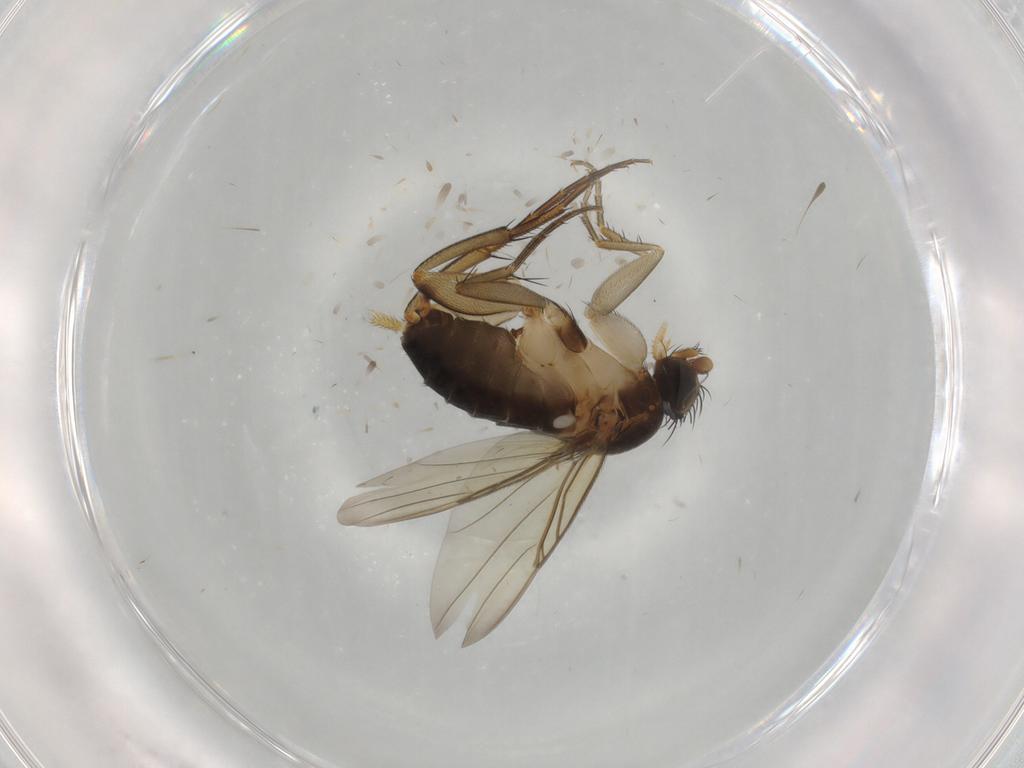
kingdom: Animalia
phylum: Arthropoda
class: Insecta
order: Diptera
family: Phoridae
